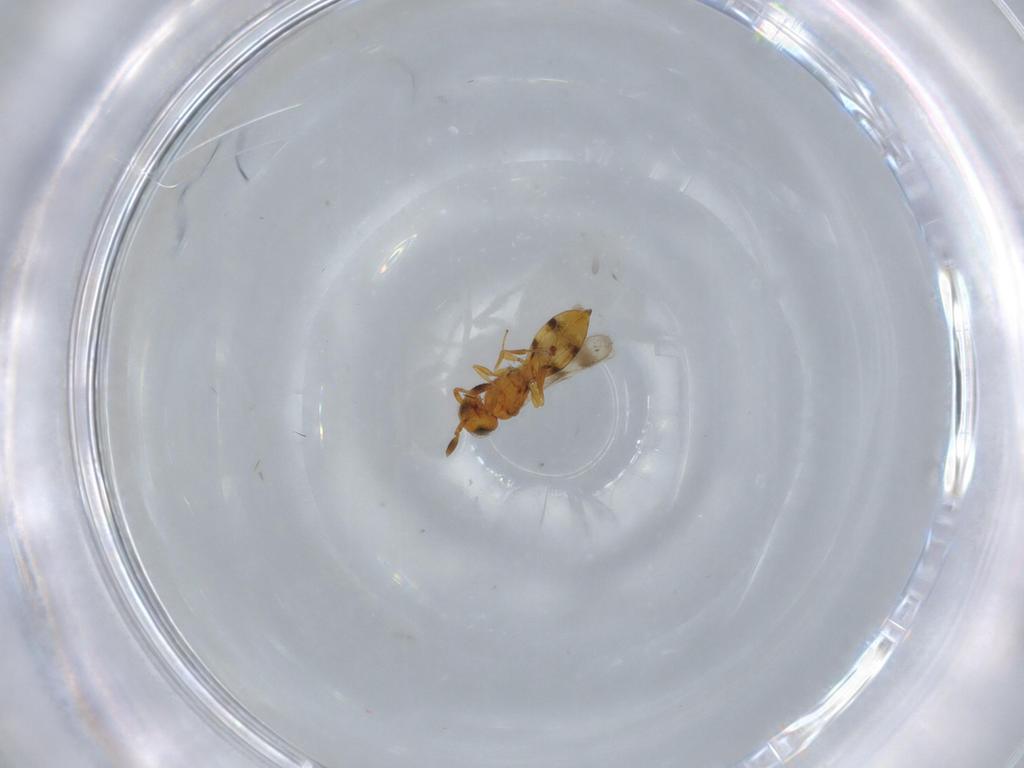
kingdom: Animalia
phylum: Arthropoda
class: Insecta
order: Hymenoptera
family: Scelionidae
